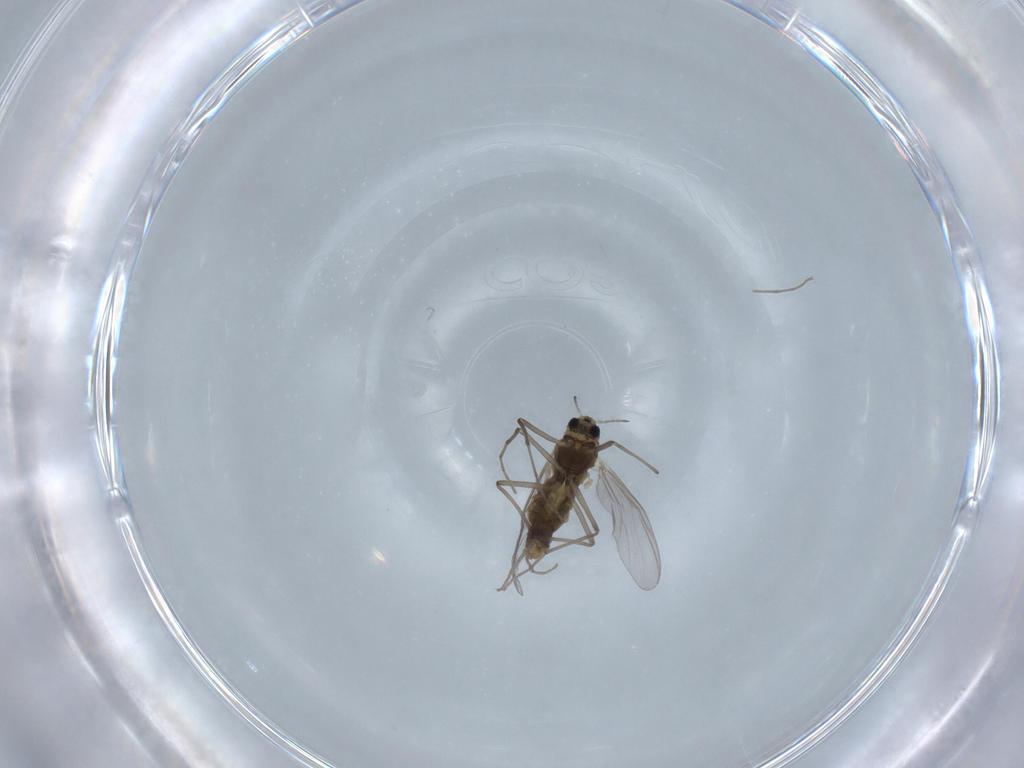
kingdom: Animalia
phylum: Arthropoda
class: Insecta
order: Diptera
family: Chironomidae
